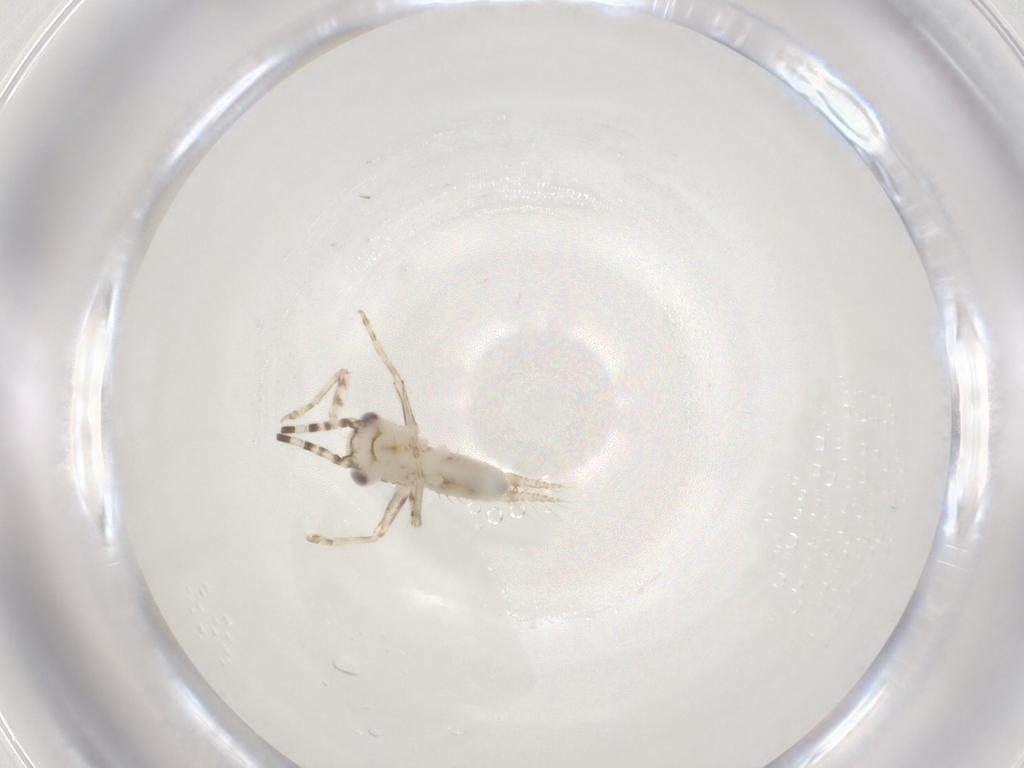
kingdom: Animalia
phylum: Arthropoda
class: Insecta
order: Orthoptera
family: Trigonidiidae
